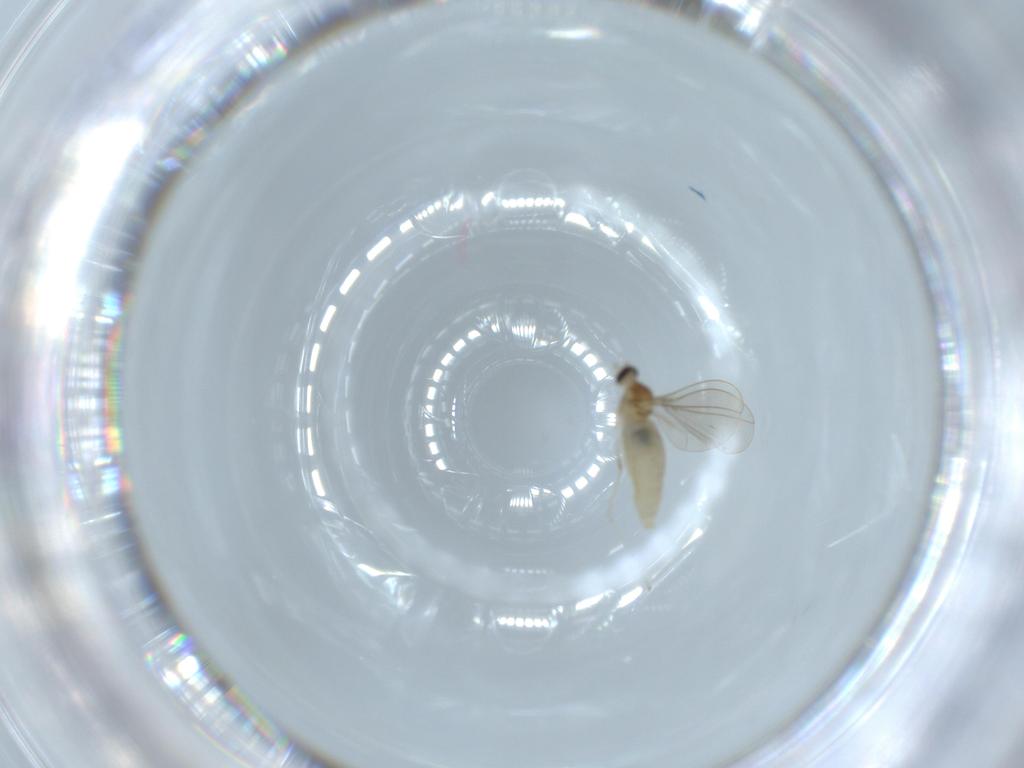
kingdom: Animalia
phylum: Arthropoda
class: Insecta
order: Diptera
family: Cecidomyiidae
